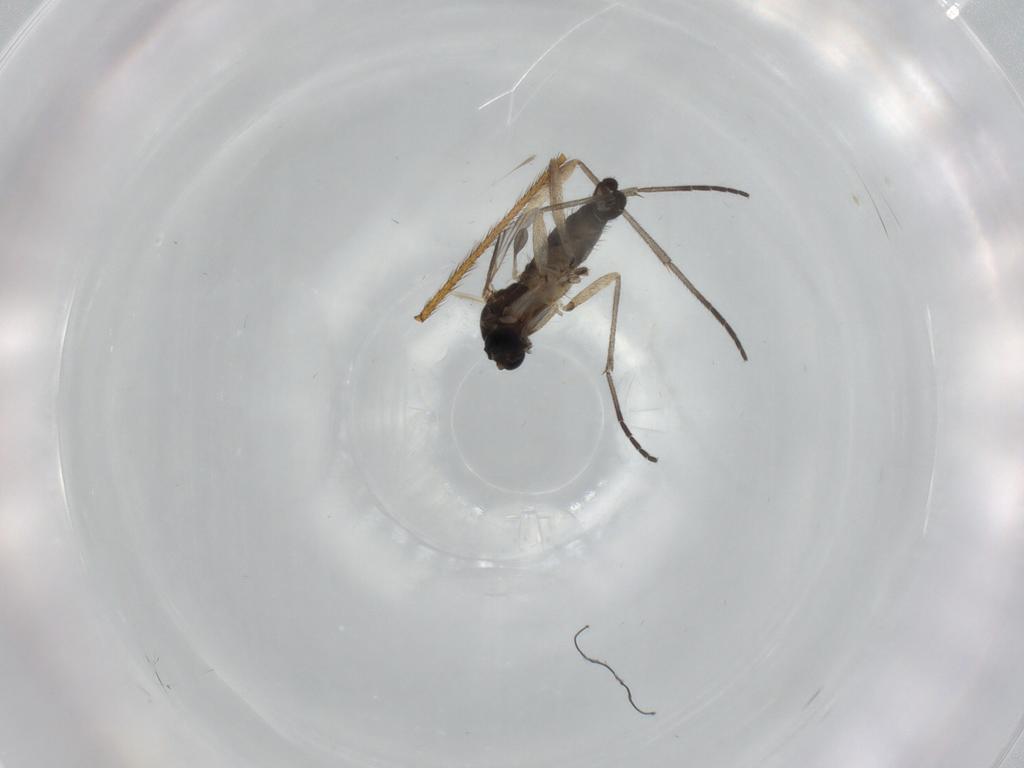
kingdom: Animalia
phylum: Arthropoda
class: Insecta
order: Diptera
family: Sciaridae
